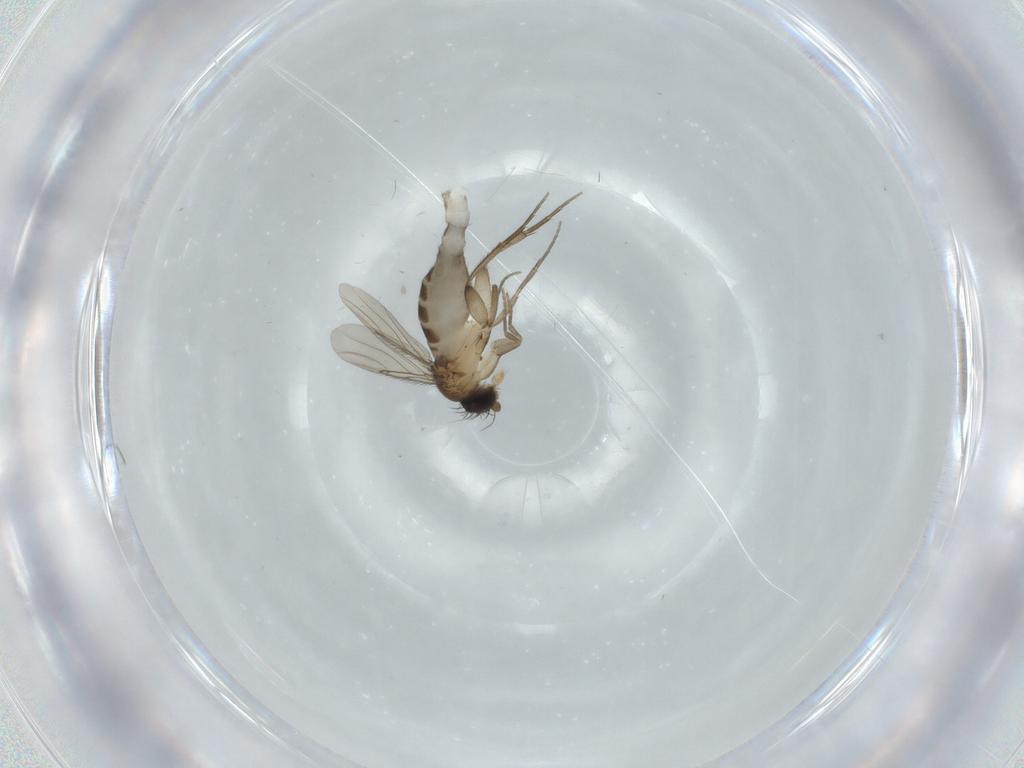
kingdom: Animalia
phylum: Arthropoda
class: Insecta
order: Diptera
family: Phoridae
